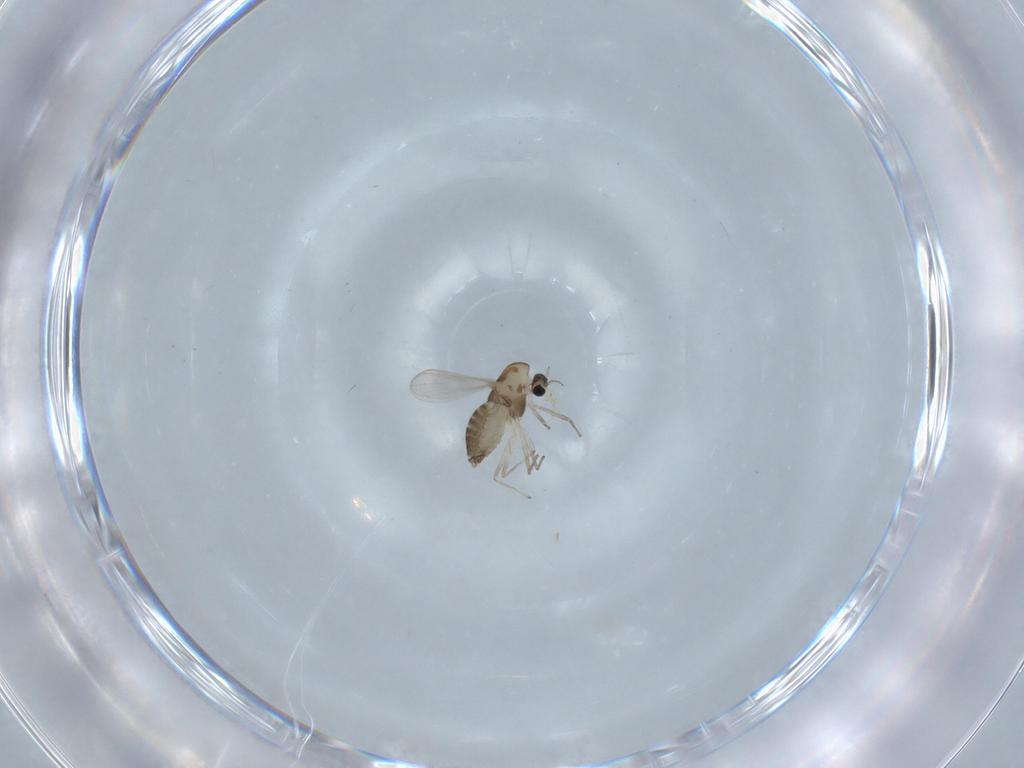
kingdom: Animalia
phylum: Arthropoda
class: Insecta
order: Diptera
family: Chironomidae
